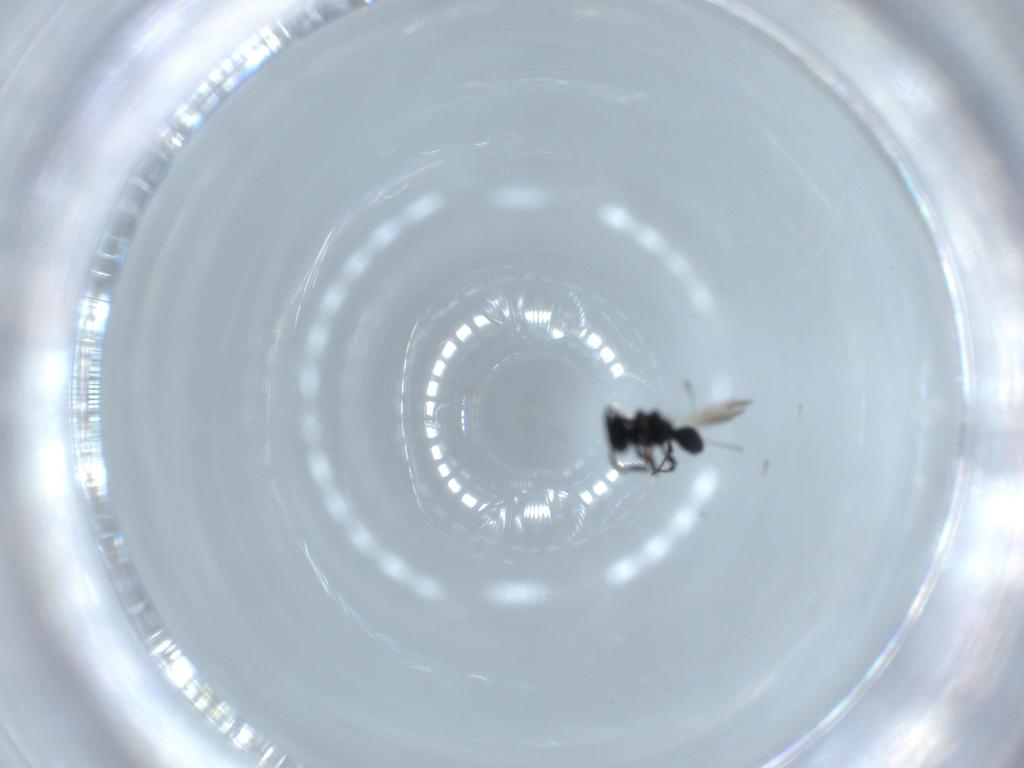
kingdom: Animalia
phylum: Arthropoda
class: Insecta
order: Hymenoptera
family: Platygastridae
